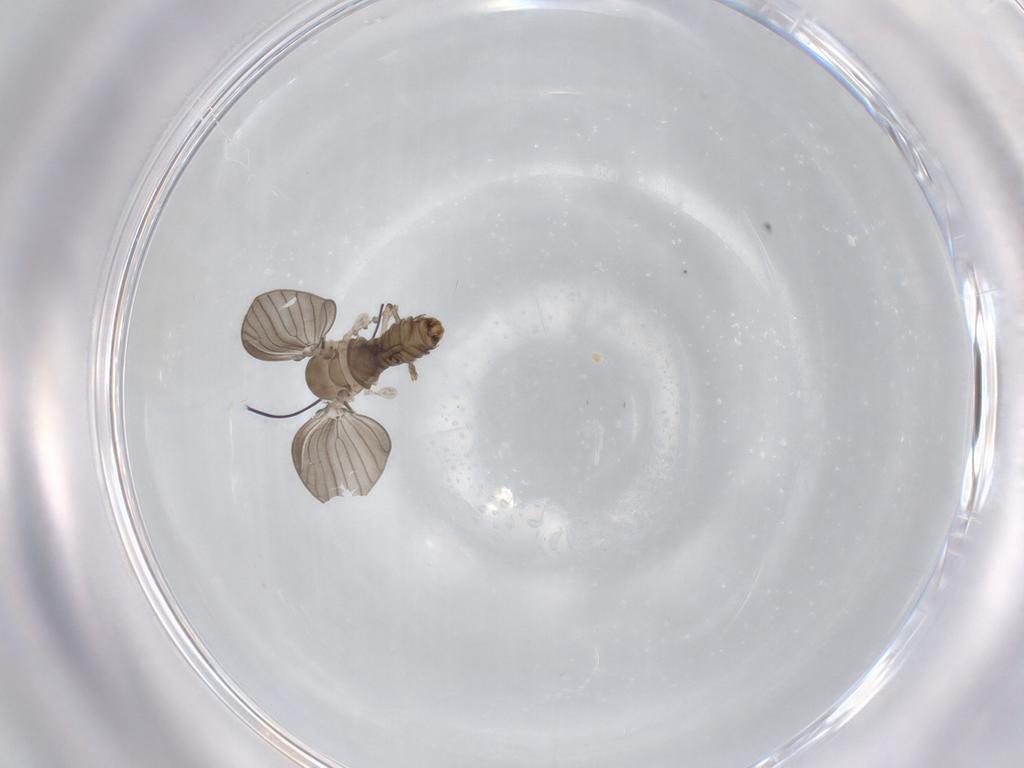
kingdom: Animalia
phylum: Arthropoda
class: Insecta
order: Diptera
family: Psychodidae
